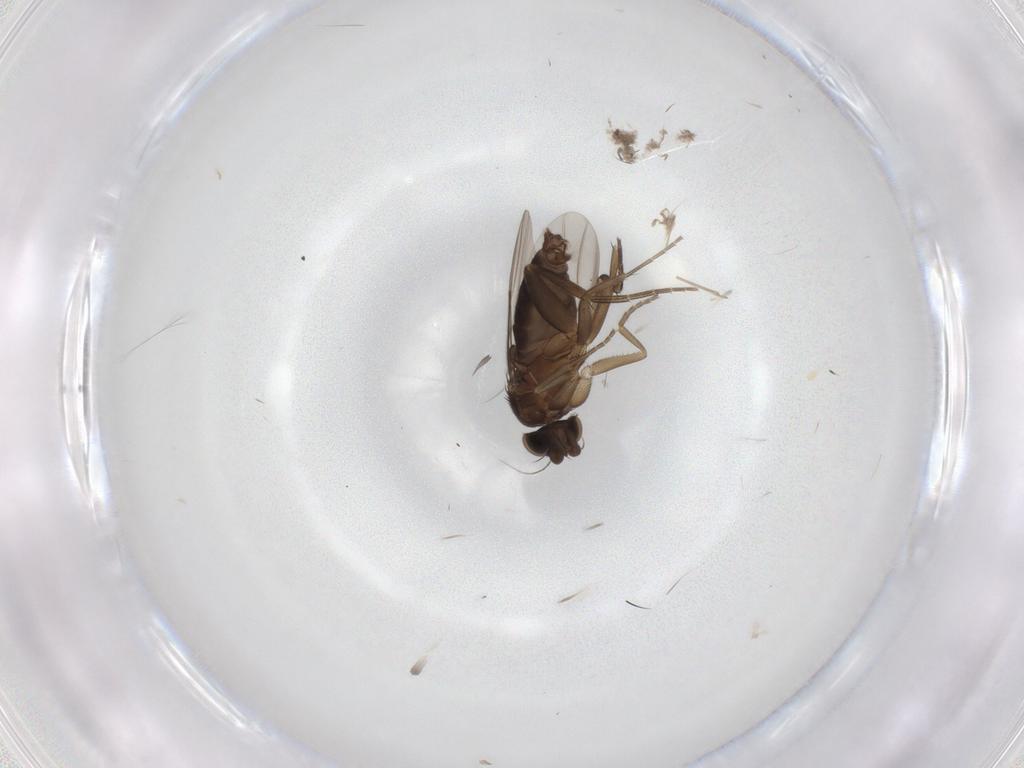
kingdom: Animalia
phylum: Arthropoda
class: Insecta
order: Diptera
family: Phoridae
